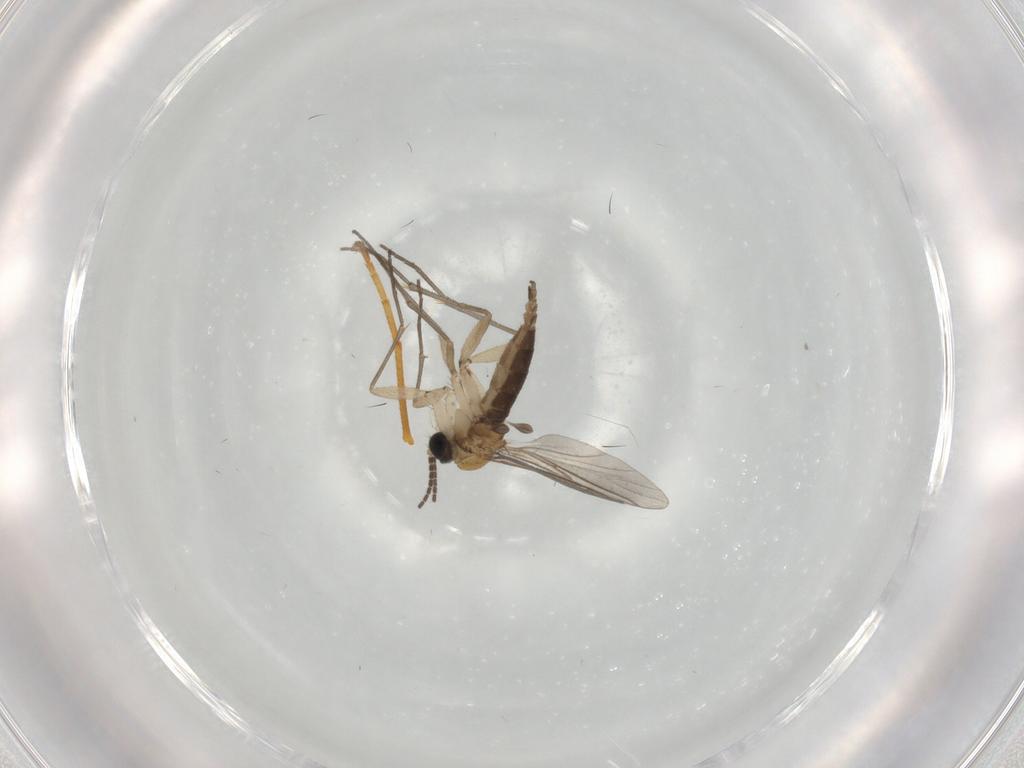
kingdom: Animalia
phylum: Arthropoda
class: Insecta
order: Diptera
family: Sciaridae
